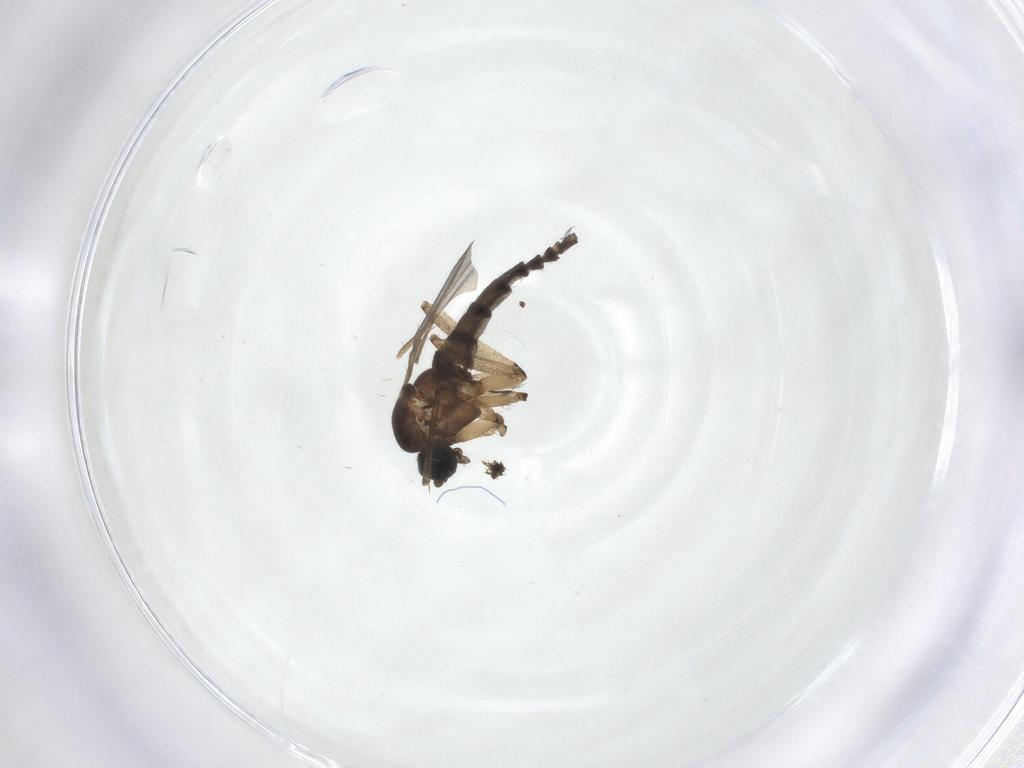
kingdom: Animalia
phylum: Arthropoda
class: Insecta
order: Diptera
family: Sciaridae
